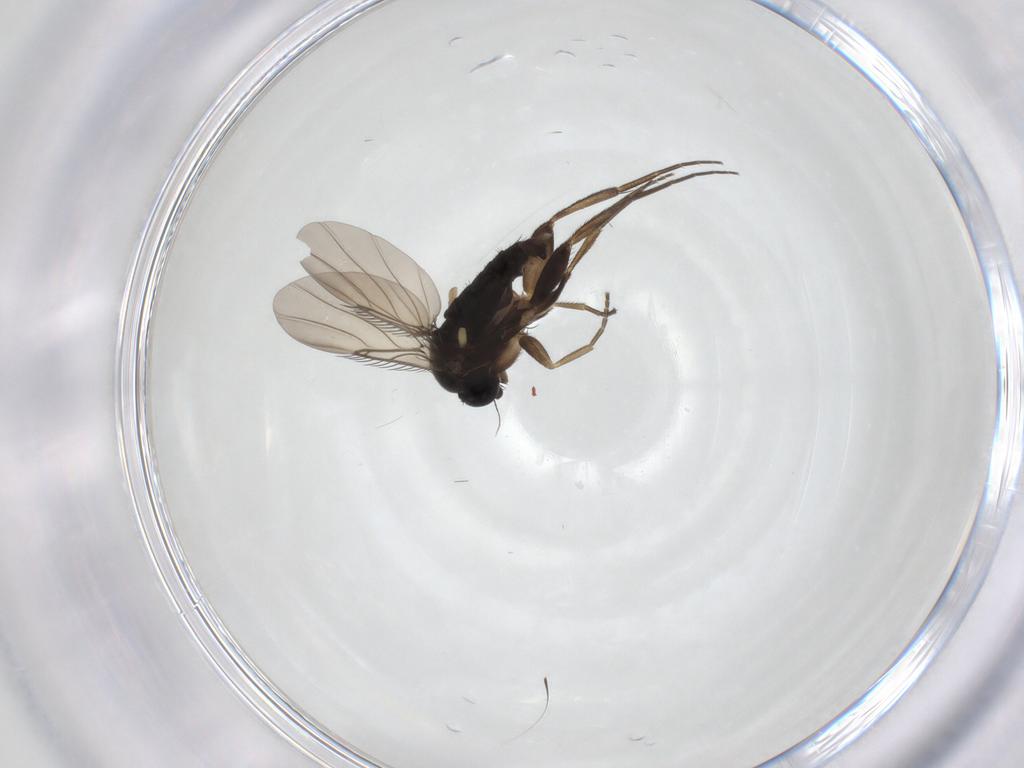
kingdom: Animalia
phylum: Arthropoda
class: Insecta
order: Diptera
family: Phoridae
